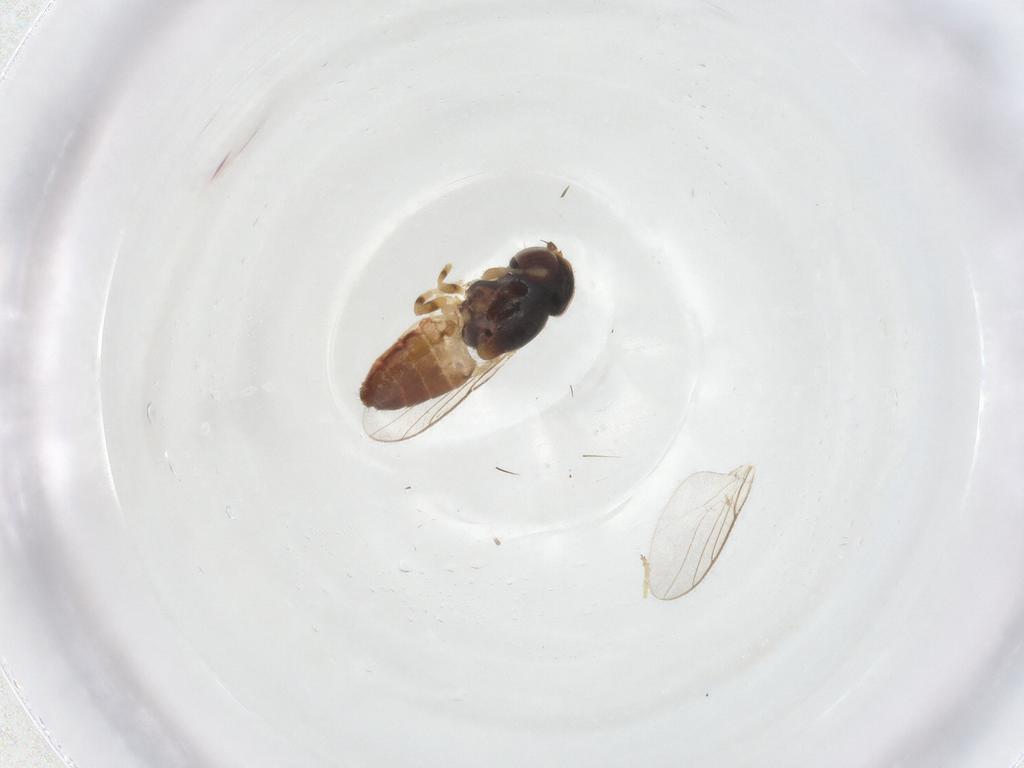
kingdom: Animalia
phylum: Arthropoda
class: Insecta
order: Diptera
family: Chloropidae
